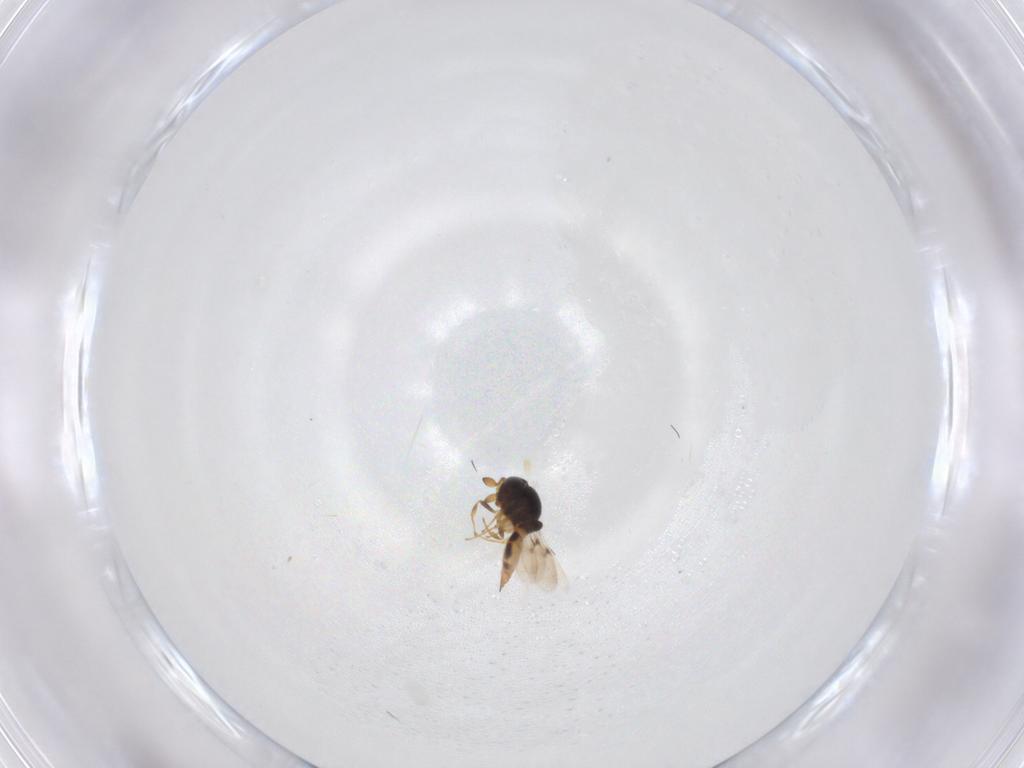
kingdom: Animalia
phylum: Arthropoda
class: Insecta
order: Hymenoptera
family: Scelionidae
